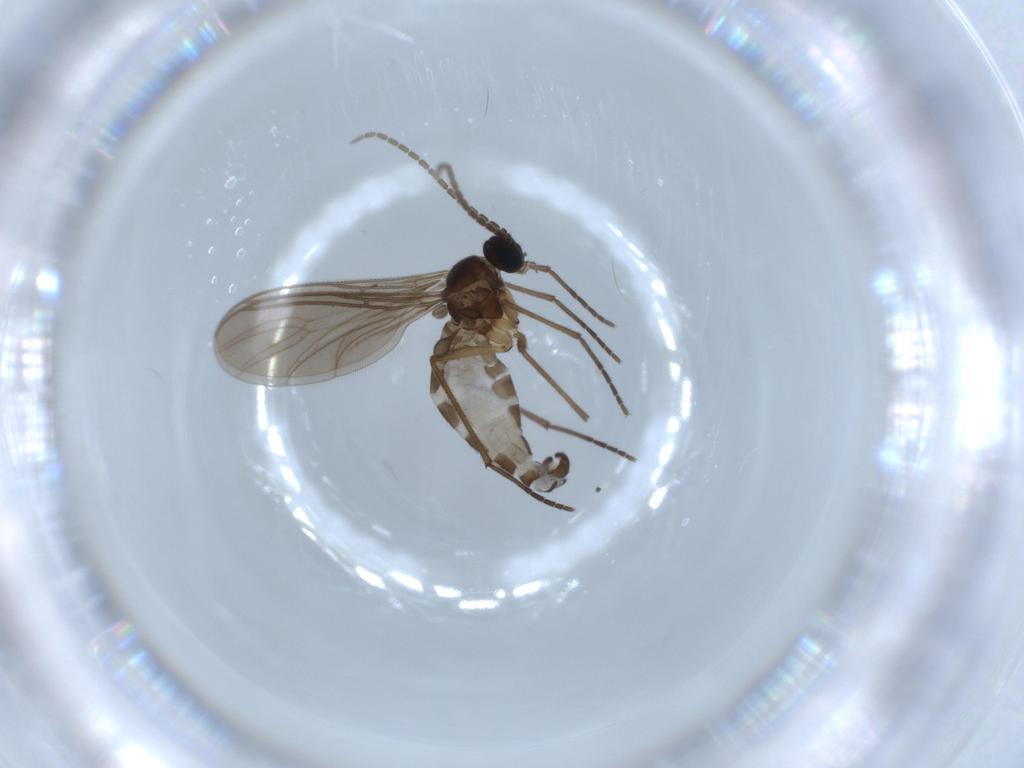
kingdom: Animalia
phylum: Arthropoda
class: Insecta
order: Diptera
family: Sciaridae
